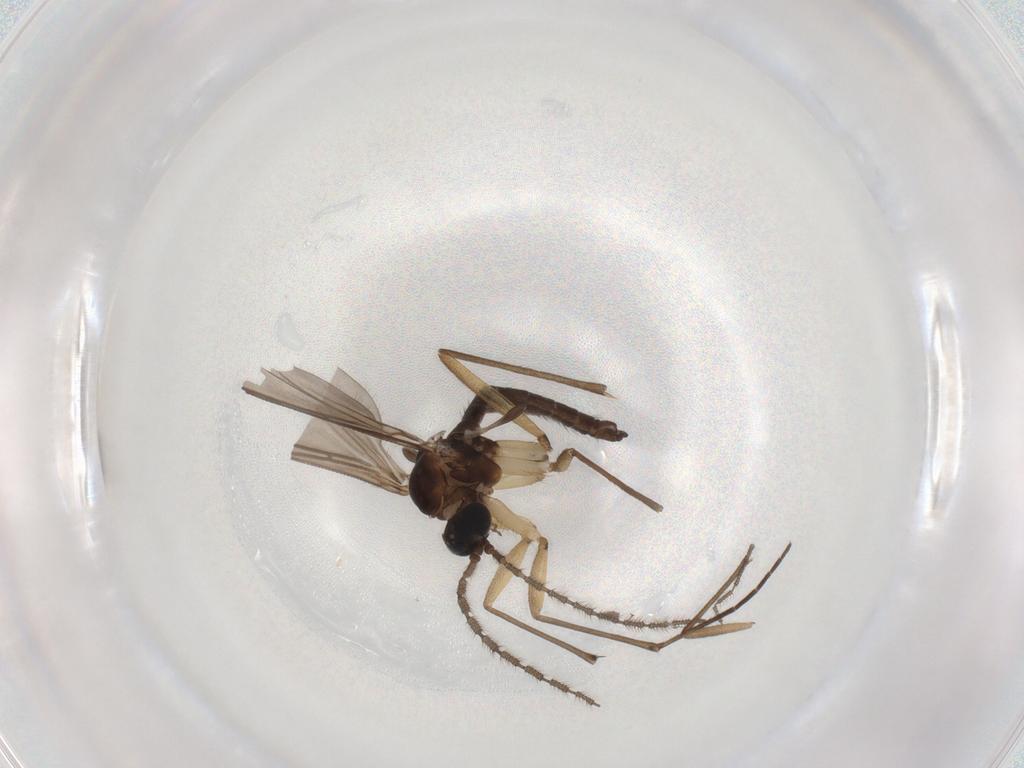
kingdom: Animalia
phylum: Arthropoda
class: Insecta
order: Diptera
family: Sciaridae
